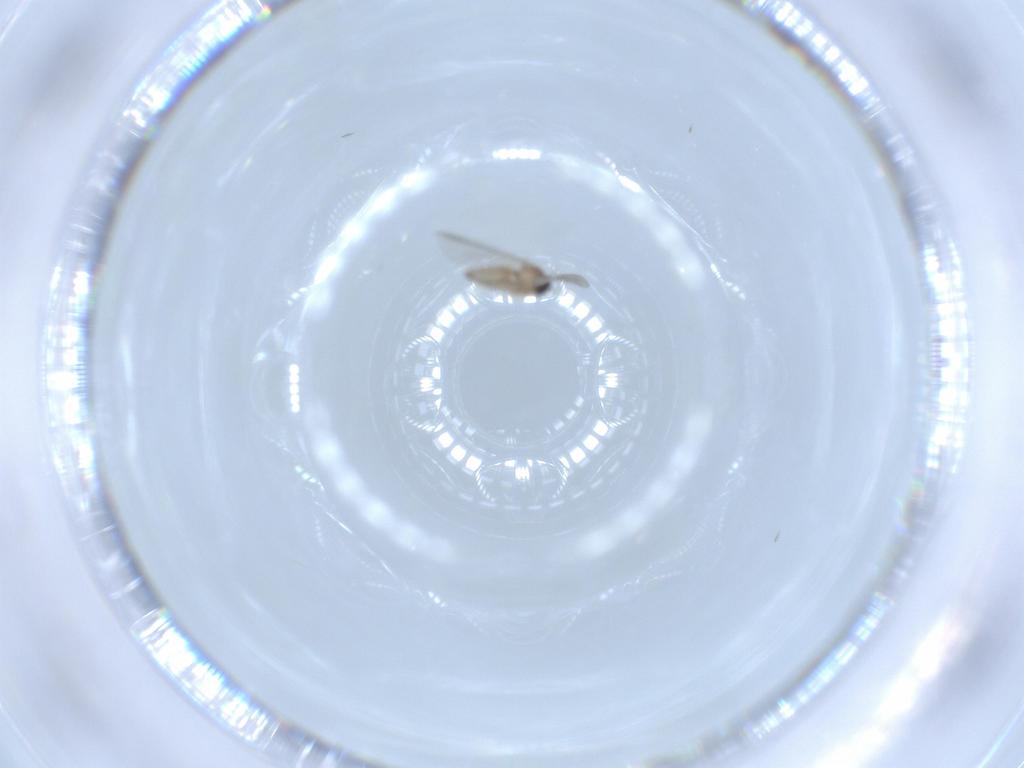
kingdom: Animalia
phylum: Arthropoda
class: Insecta
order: Diptera
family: Cecidomyiidae
